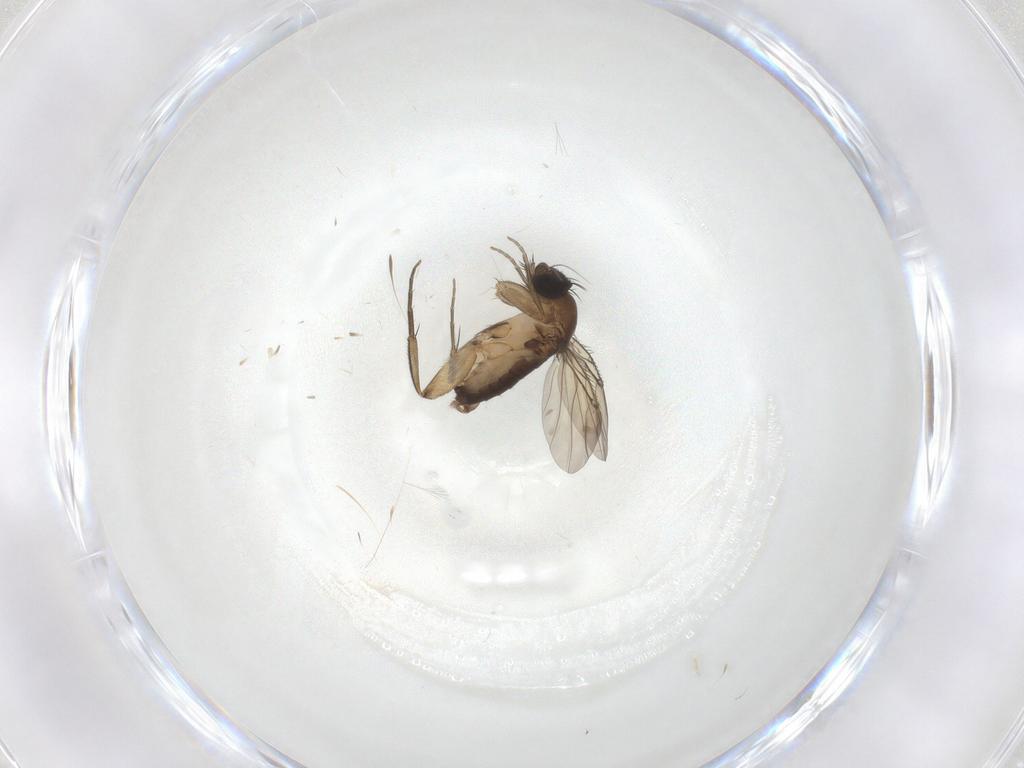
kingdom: Animalia
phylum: Arthropoda
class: Insecta
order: Diptera
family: Phoridae
